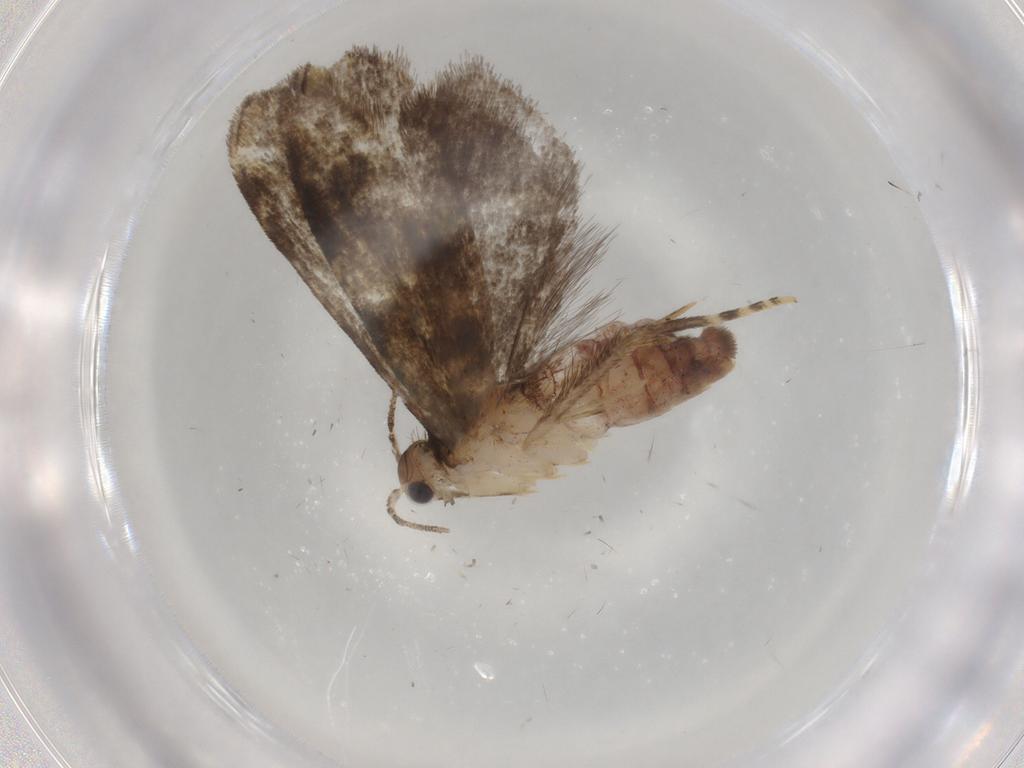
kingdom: Animalia
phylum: Arthropoda
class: Insecta
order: Lepidoptera
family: Tineidae
